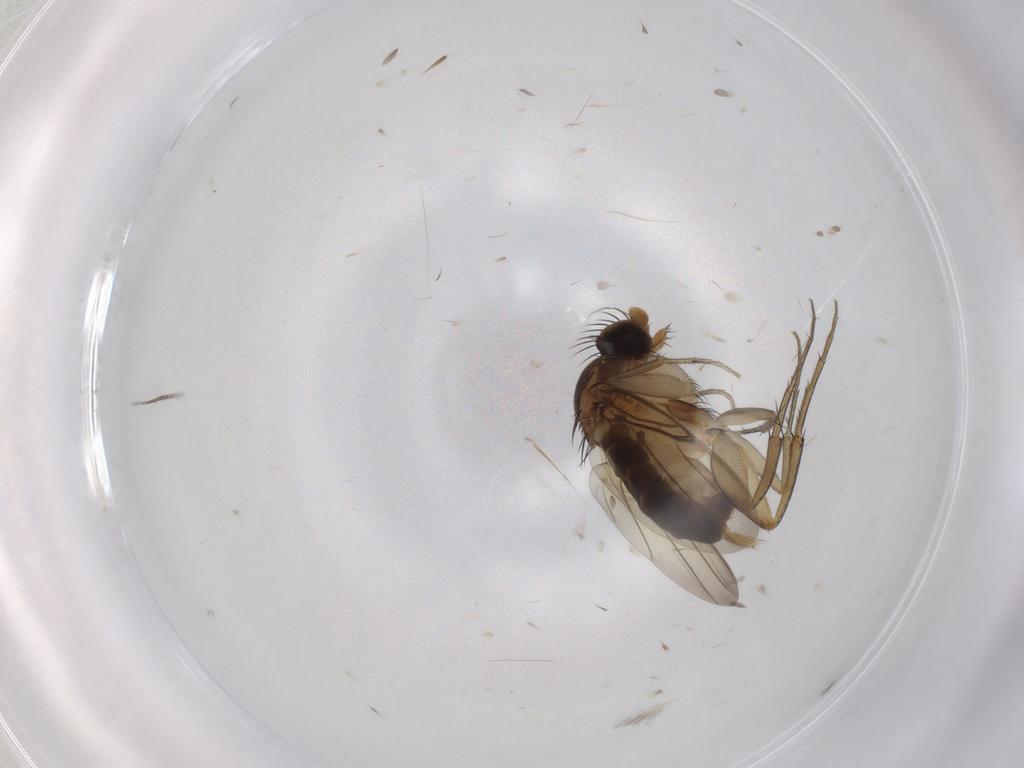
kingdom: Animalia
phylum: Arthropoda
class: Insecta
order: Diptera
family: Phoridae
